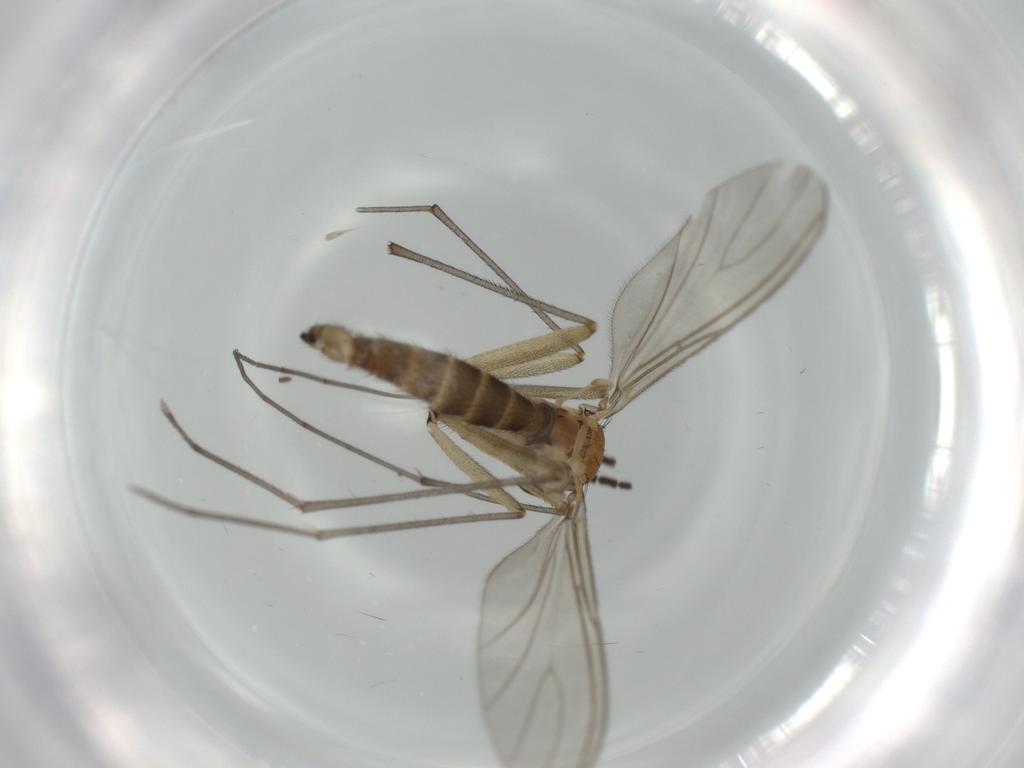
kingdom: Animalia
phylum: Arthropoda
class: Insecta
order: Diptera
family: Sciaridae
